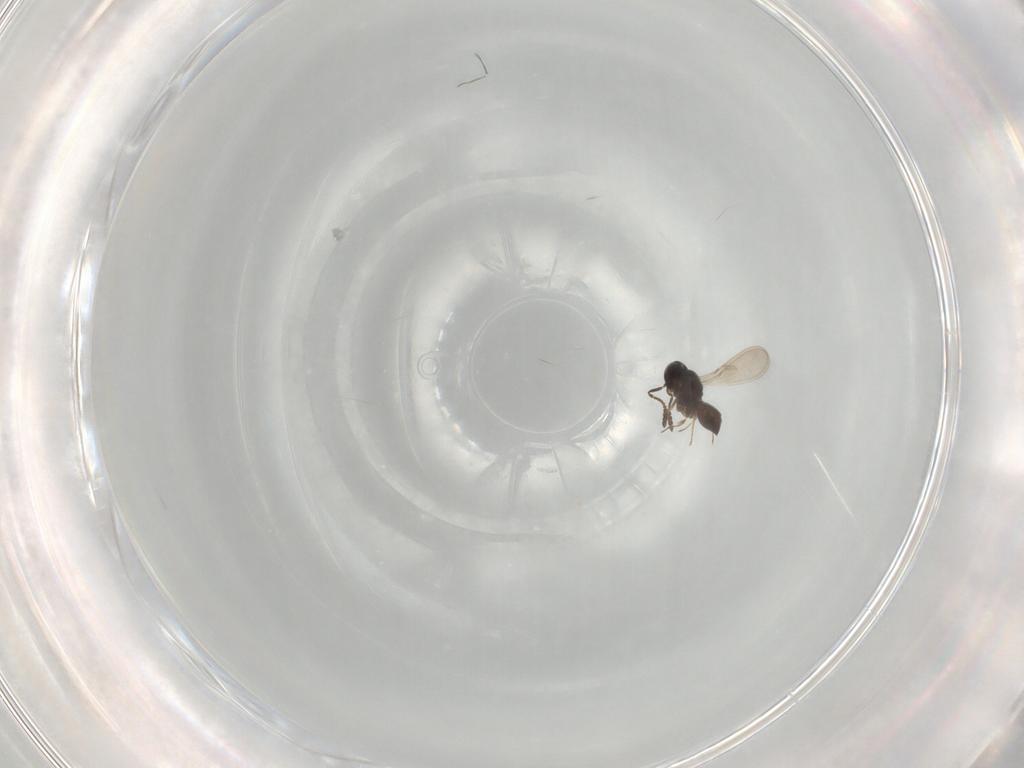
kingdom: Animalia
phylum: Arthropoda
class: Insecta
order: Hymenoptera
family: Scelionidae
